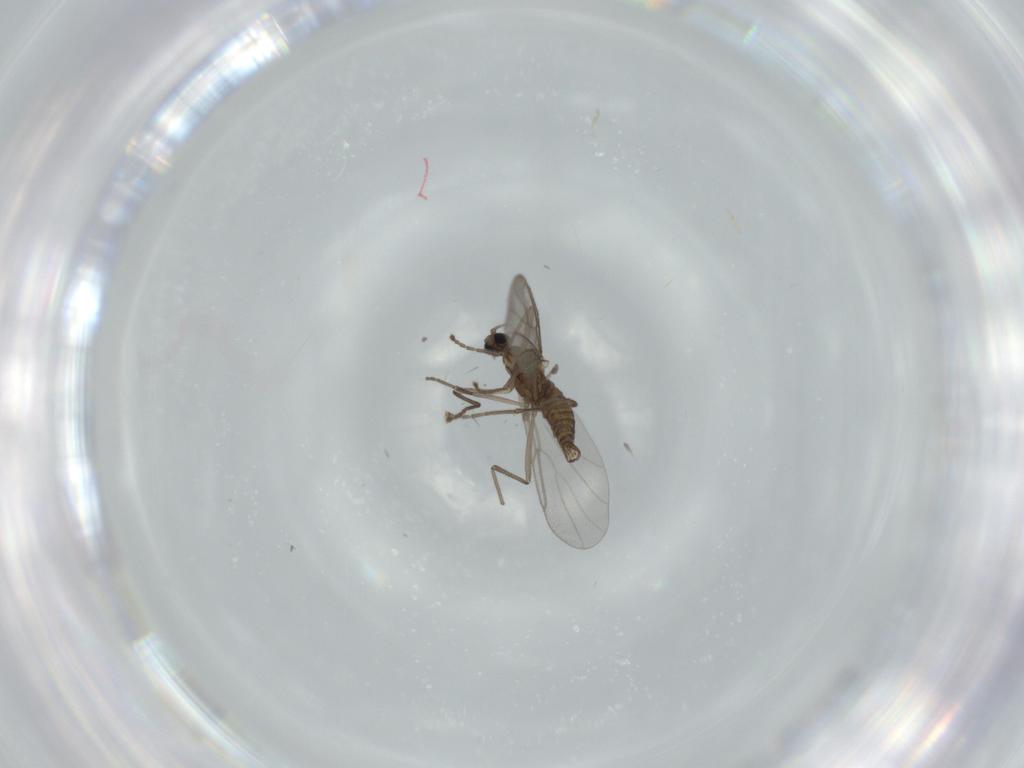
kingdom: Animalia
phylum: Arthropoda
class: Insecta
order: Diptera
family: Cecidomyiidae
